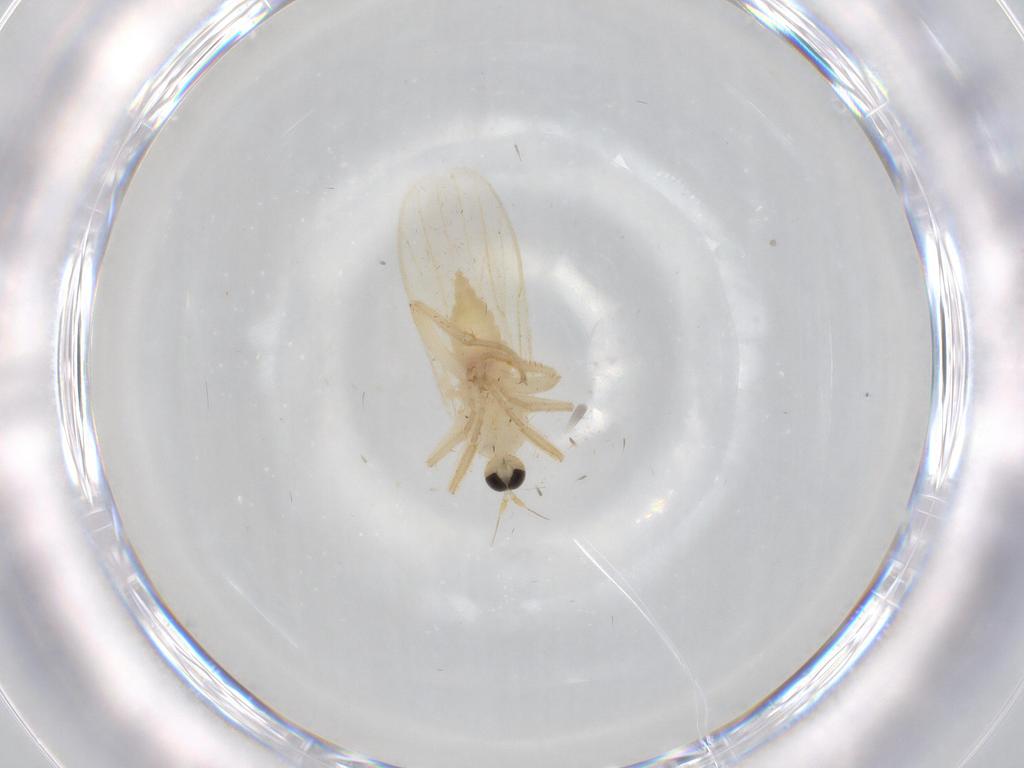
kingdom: Animalia
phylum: Arthropoda
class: Insecta
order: Diptera
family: Hybotidae
